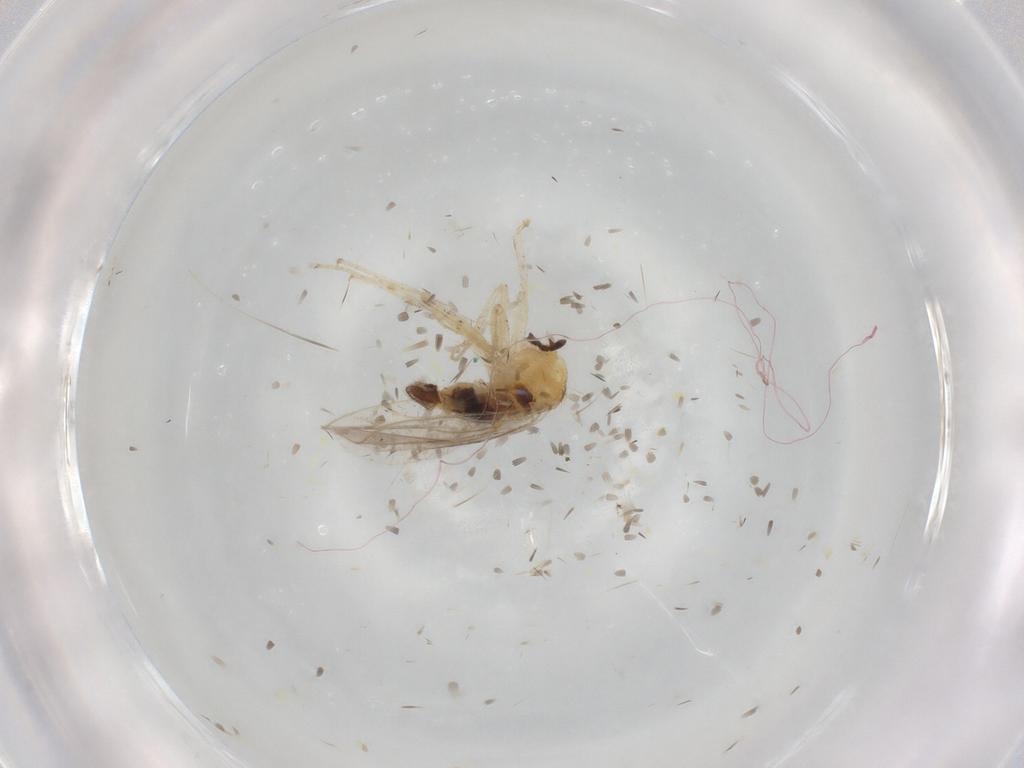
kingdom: Animalia
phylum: Arthropoda
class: Insecta
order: Diptera
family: Hybotidae
